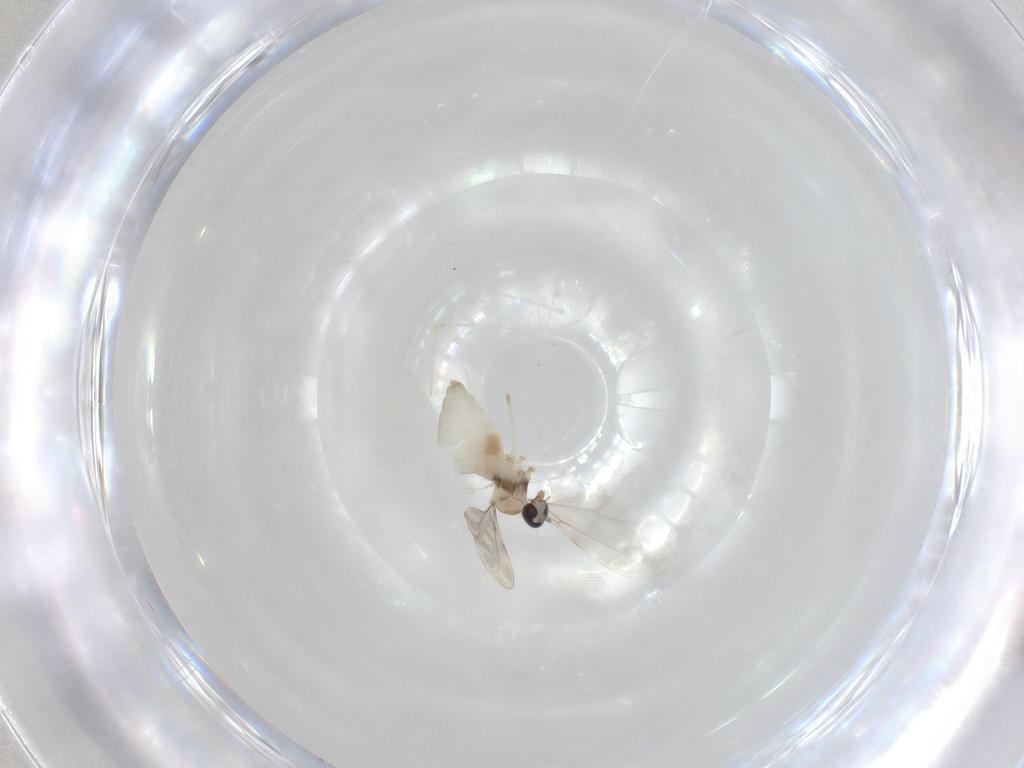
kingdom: Animalia
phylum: Arthropoda
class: Insecta
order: Diptera
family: Cecidomyiidae
